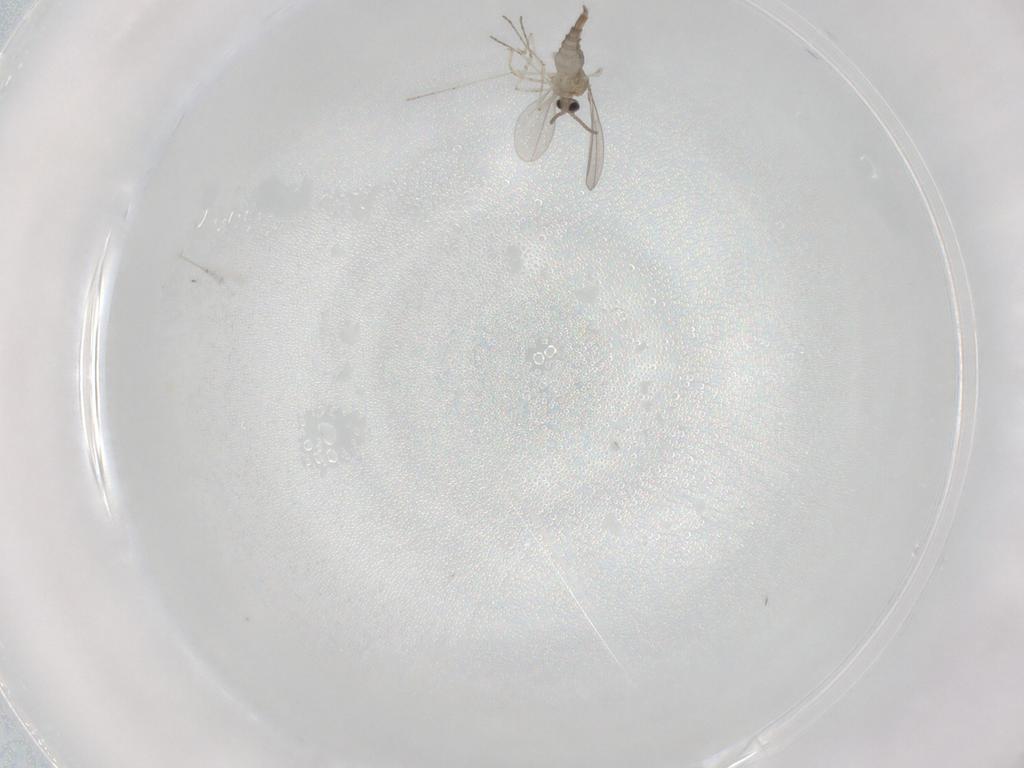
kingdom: Animalia
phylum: Arthropoda
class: Insecta
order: Diptera
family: Cecidomyiidae
